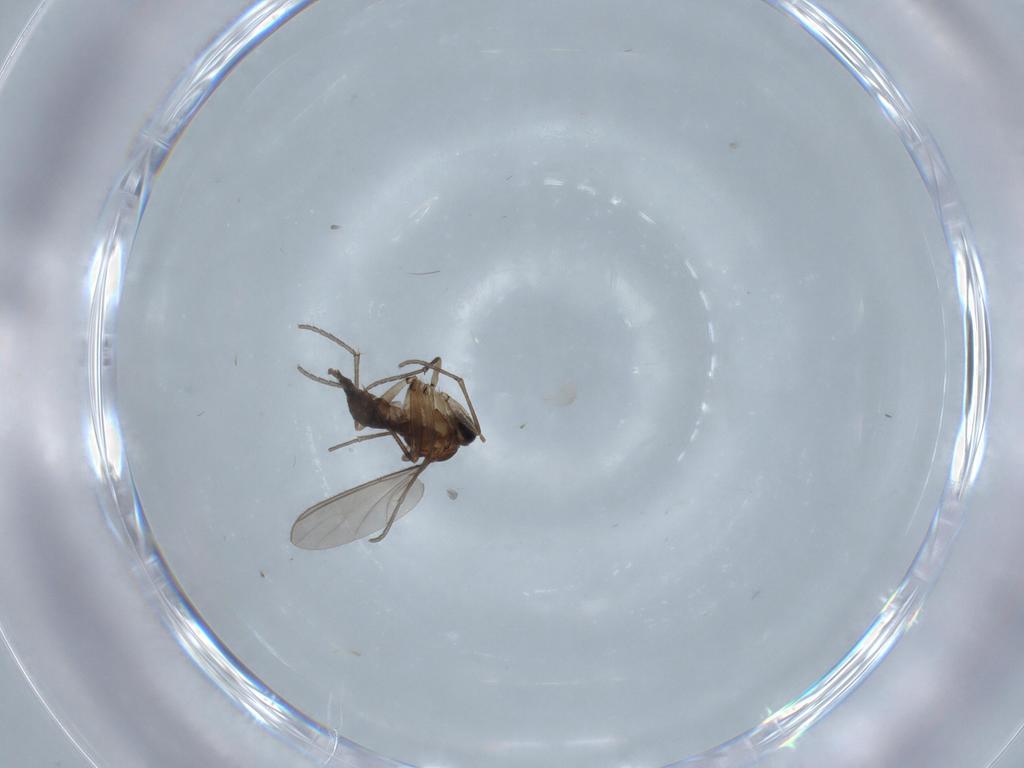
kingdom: Animalia
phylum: Arthropoda
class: Insecta
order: Diptera
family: Sciaridae
